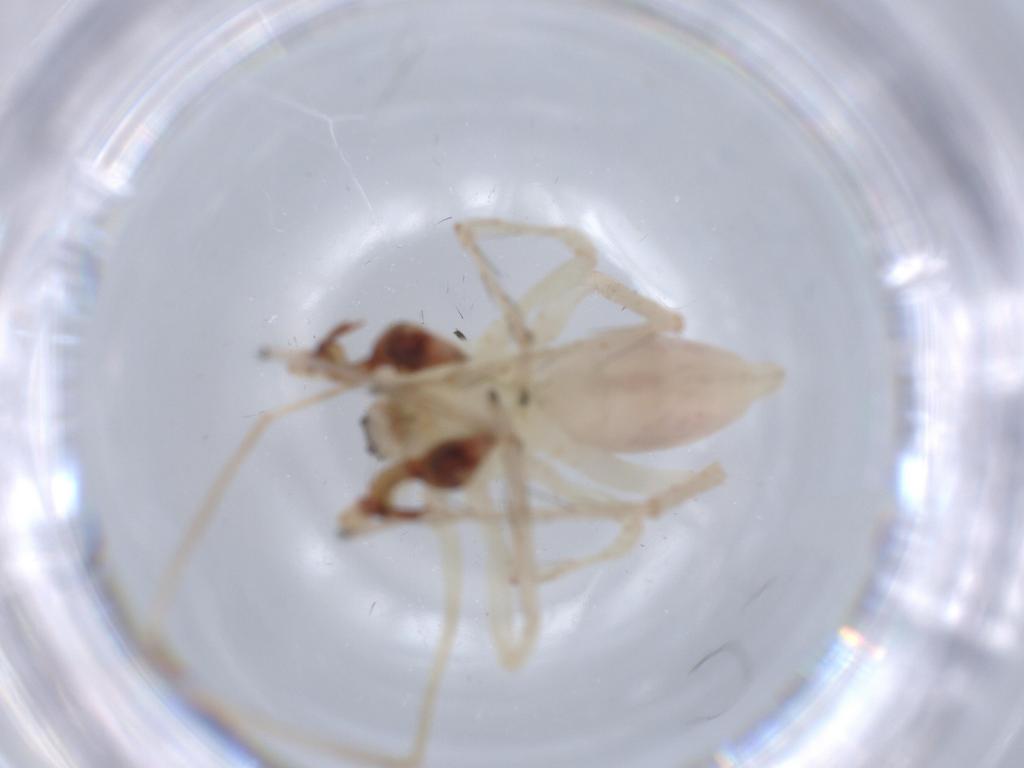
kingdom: Animalia
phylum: Arthropoda
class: Arachnida
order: Araneae
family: Anyphaenidae
